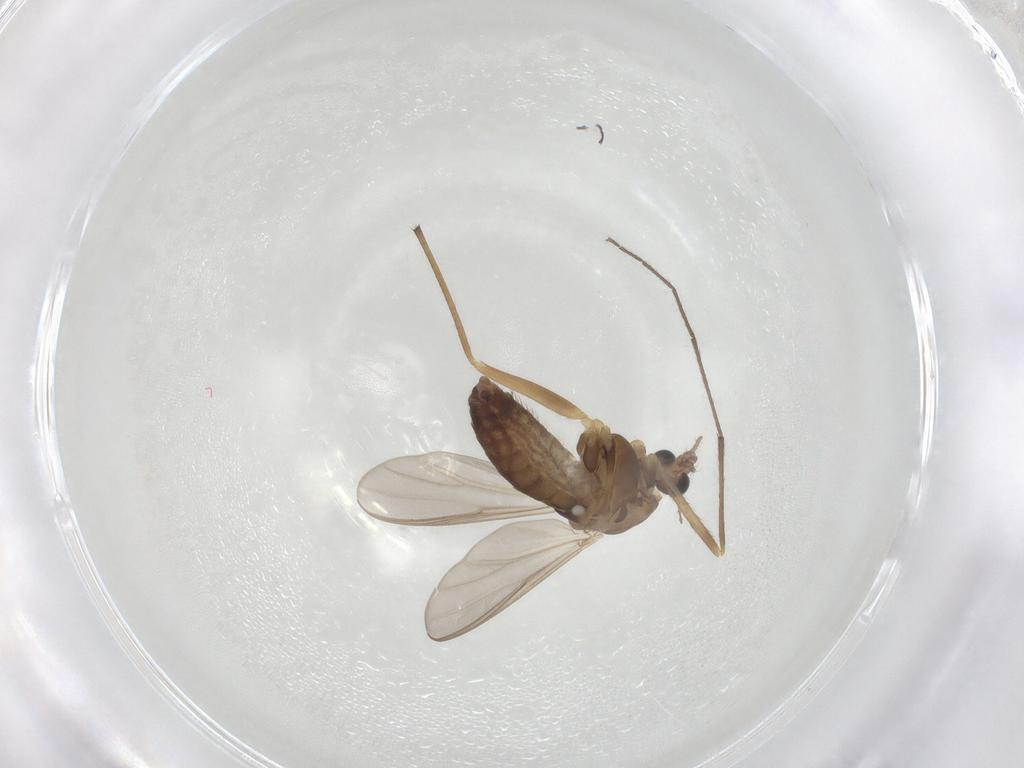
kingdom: Animalia
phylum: Arthropoda
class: Insecta
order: Diptera
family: Chironomidae
